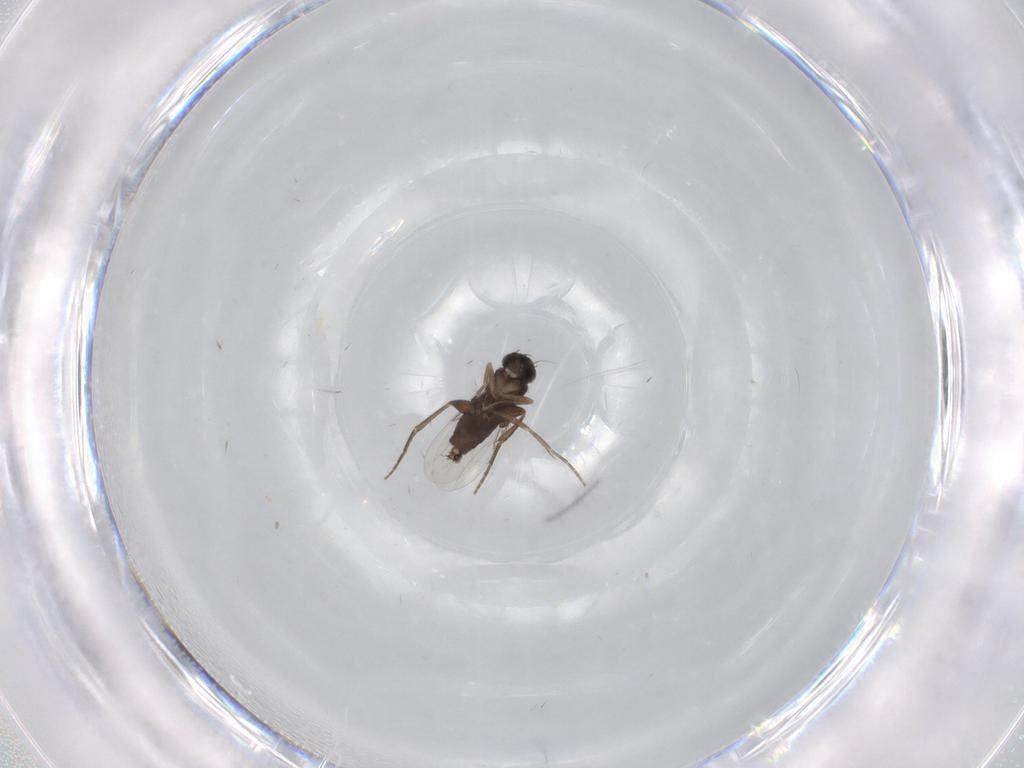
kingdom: Animalia
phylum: Arthropoda
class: Insecta
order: Diptera
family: Phoridae
